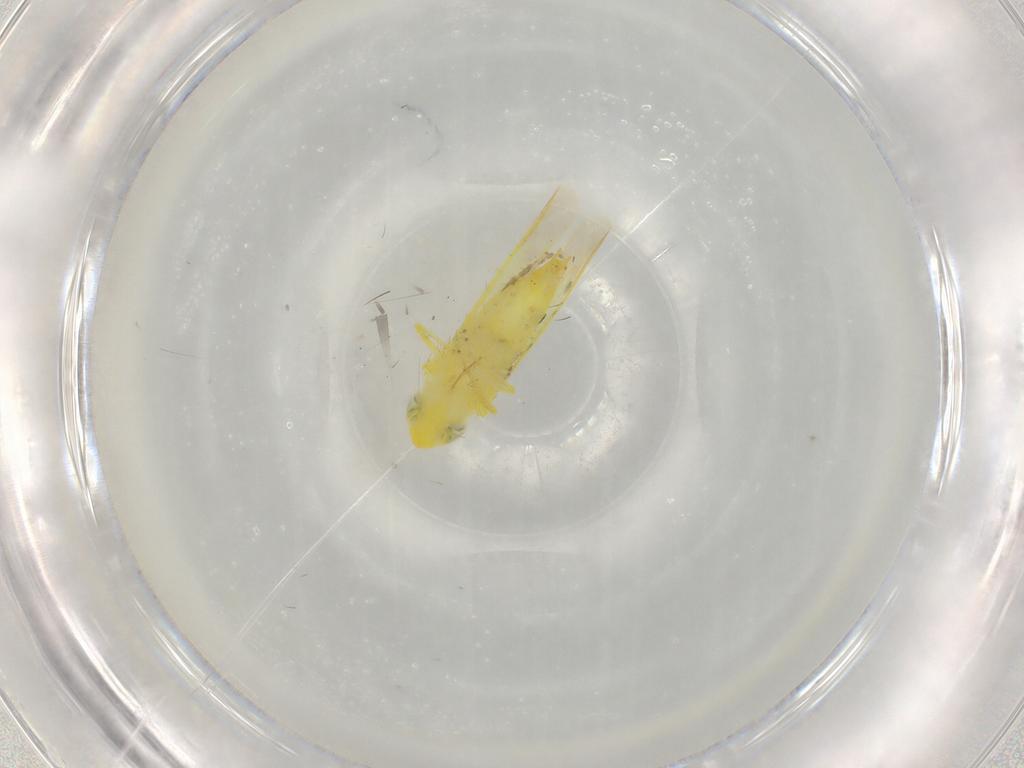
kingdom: Animalia
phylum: Arthropoda
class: Insecta
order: Hemiptera
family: Cicadellidae
